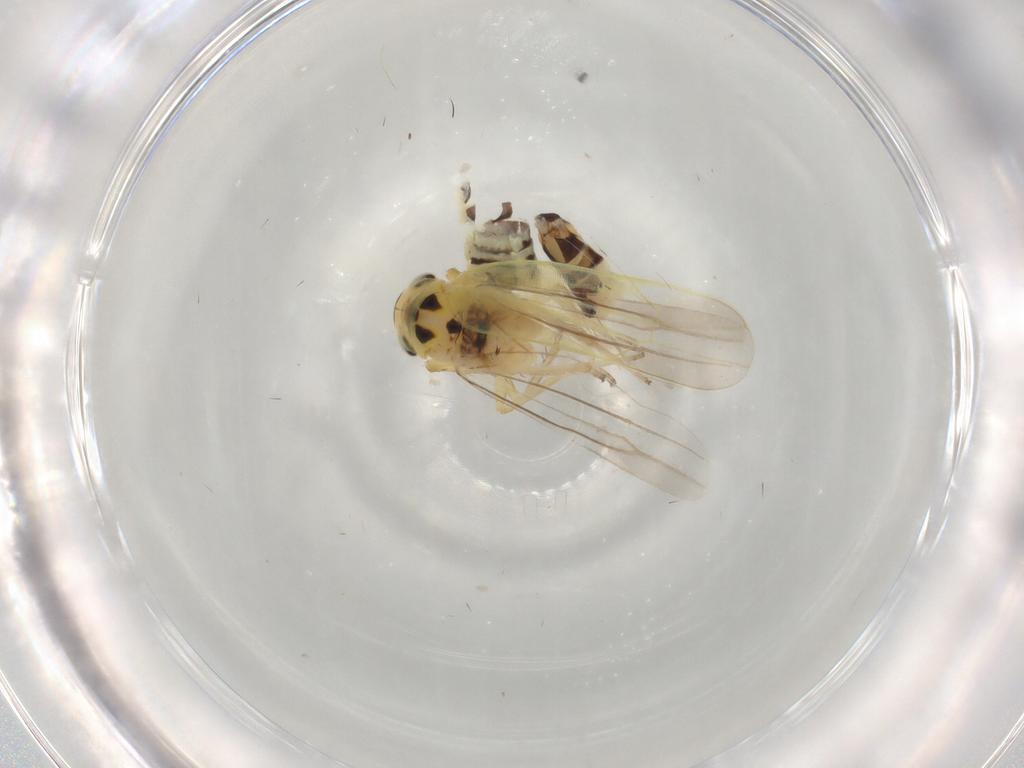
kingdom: Animalia
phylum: Arthropoda
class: Insecta
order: Hemiptera
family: Cicadellidae
